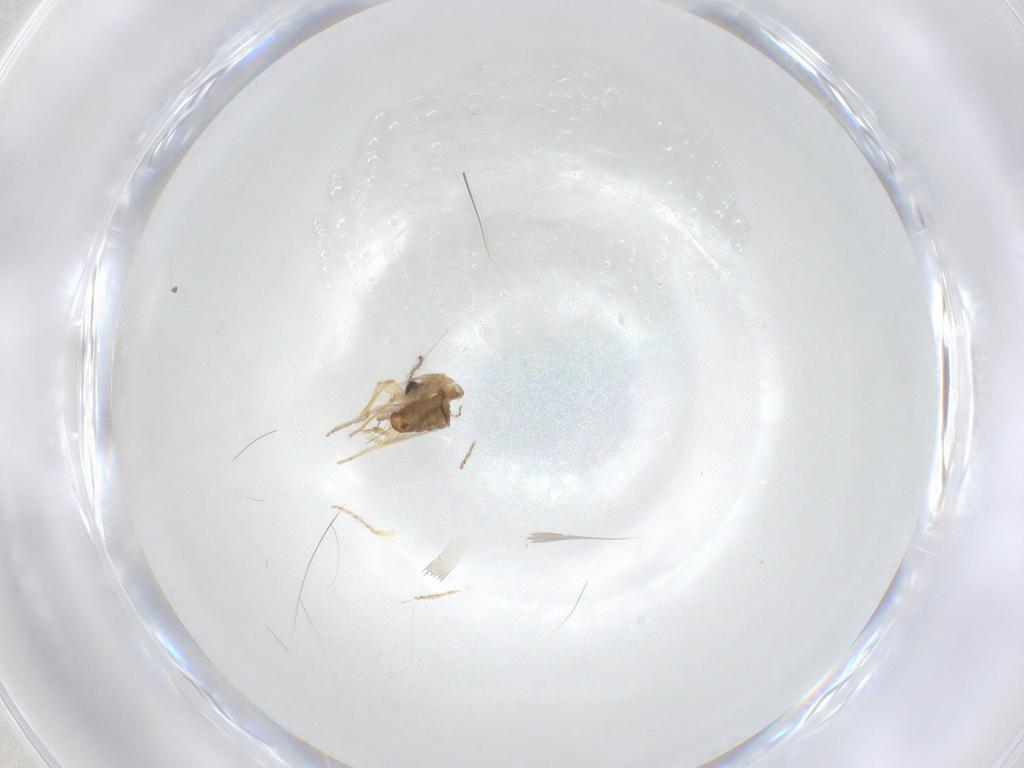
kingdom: Animalia
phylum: Arthropoda
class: Insecta
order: Diptera
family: Ceratopogonidae
